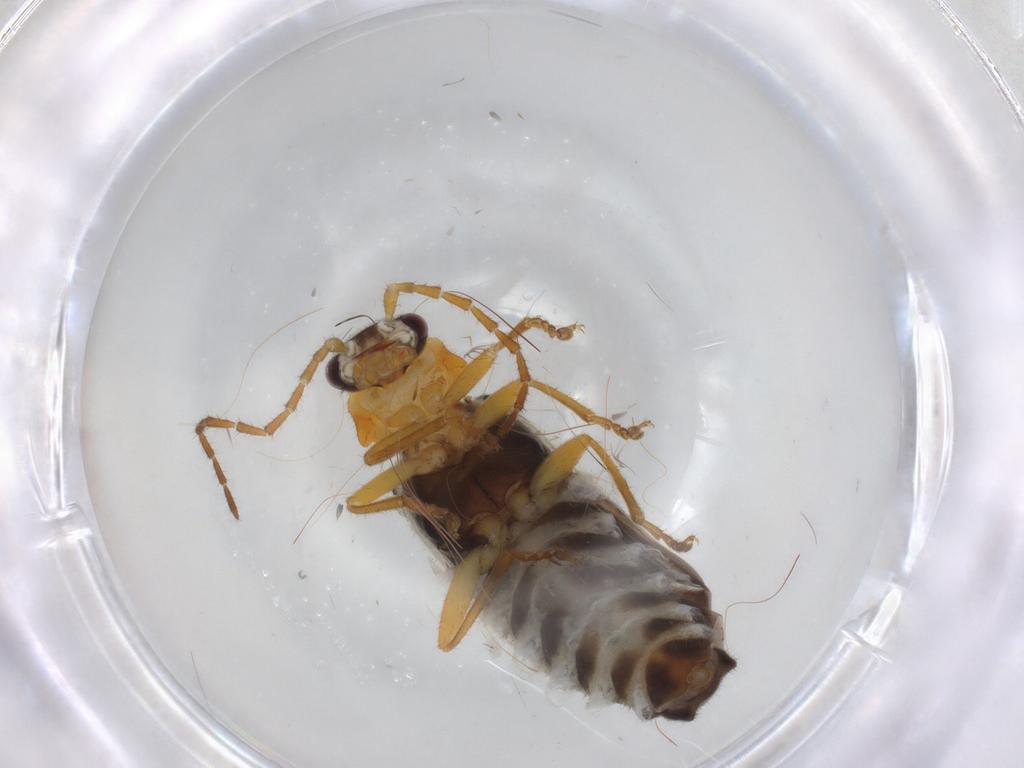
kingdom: Animalia
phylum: Arthropoda
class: Insecta
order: Coleoptera
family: Cantharidae
